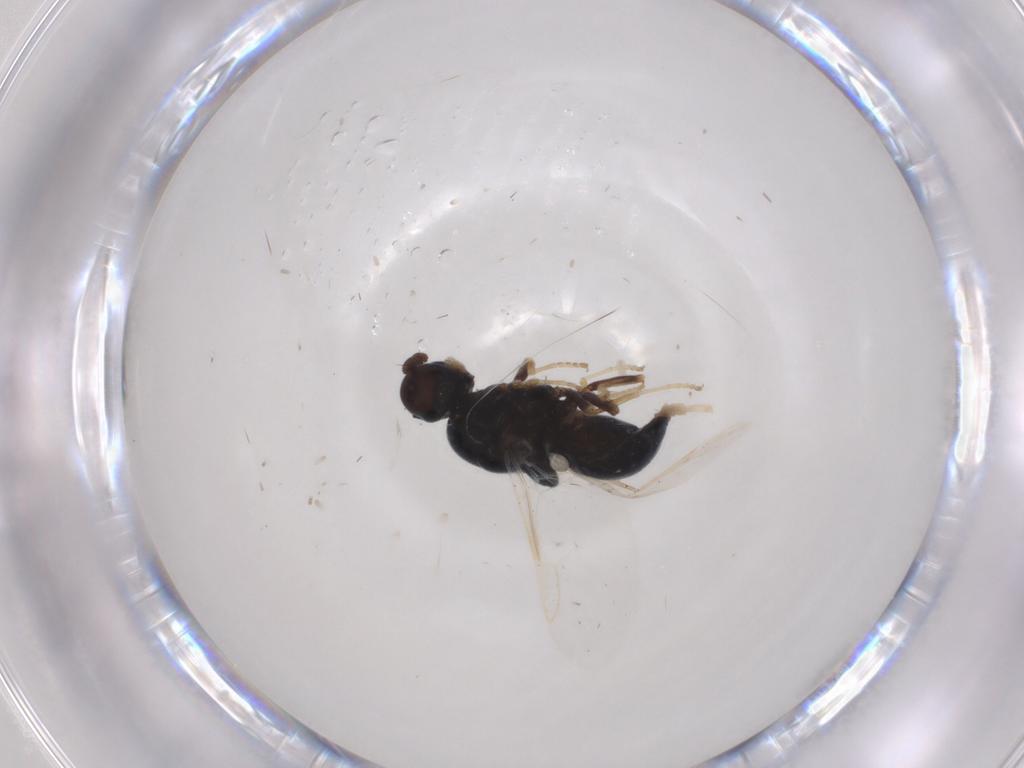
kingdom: Animalia
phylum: Arthropoda
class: Insecta
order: Diptera
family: Stratiomyidae
